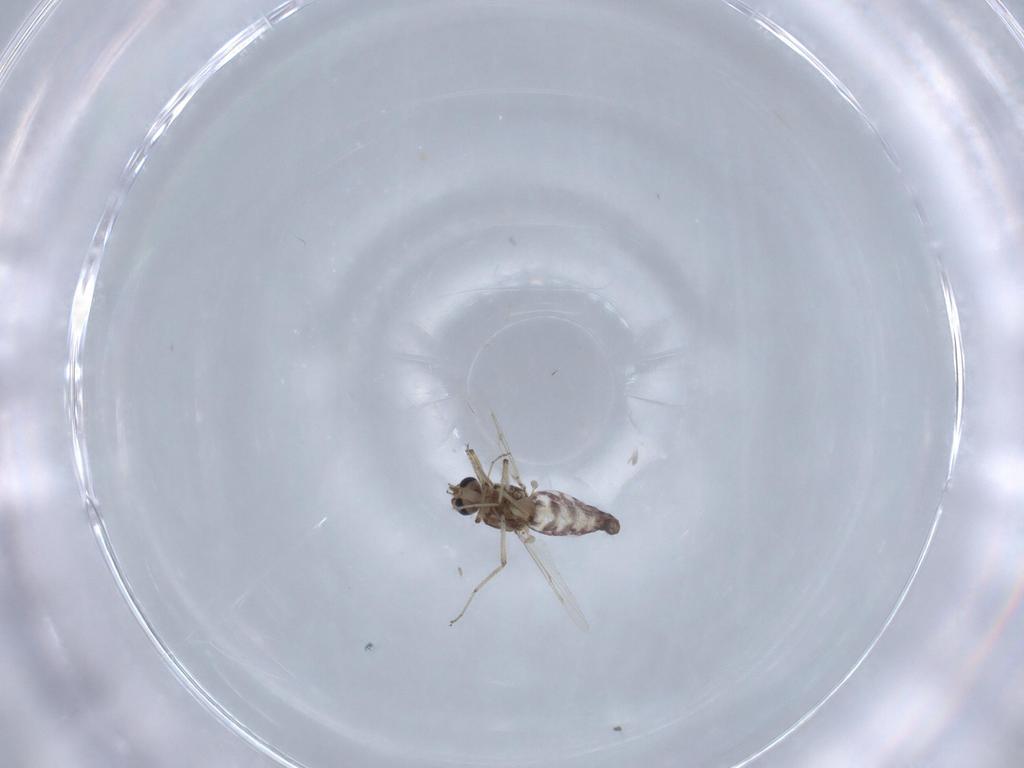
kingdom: Animalia
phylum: Arthropoda
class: Insecta
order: Diptera
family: Ceratopogonidae
